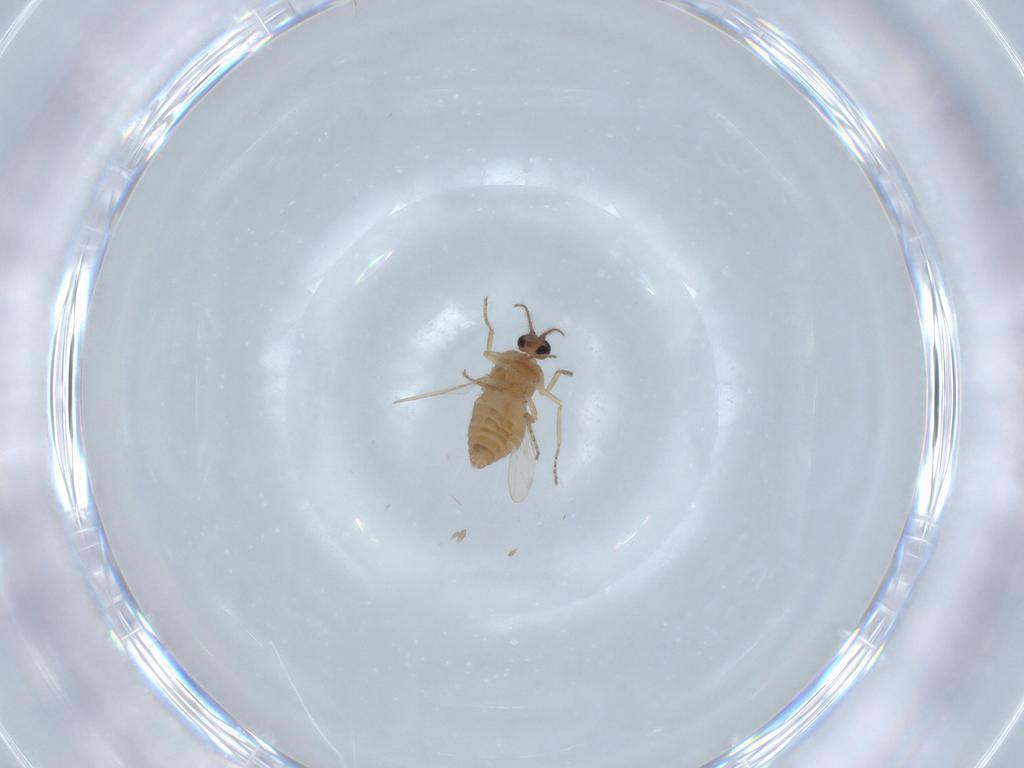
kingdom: Animalia
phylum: Arthropoda
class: Insecta
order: Diptera
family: Ceratopogonidae
